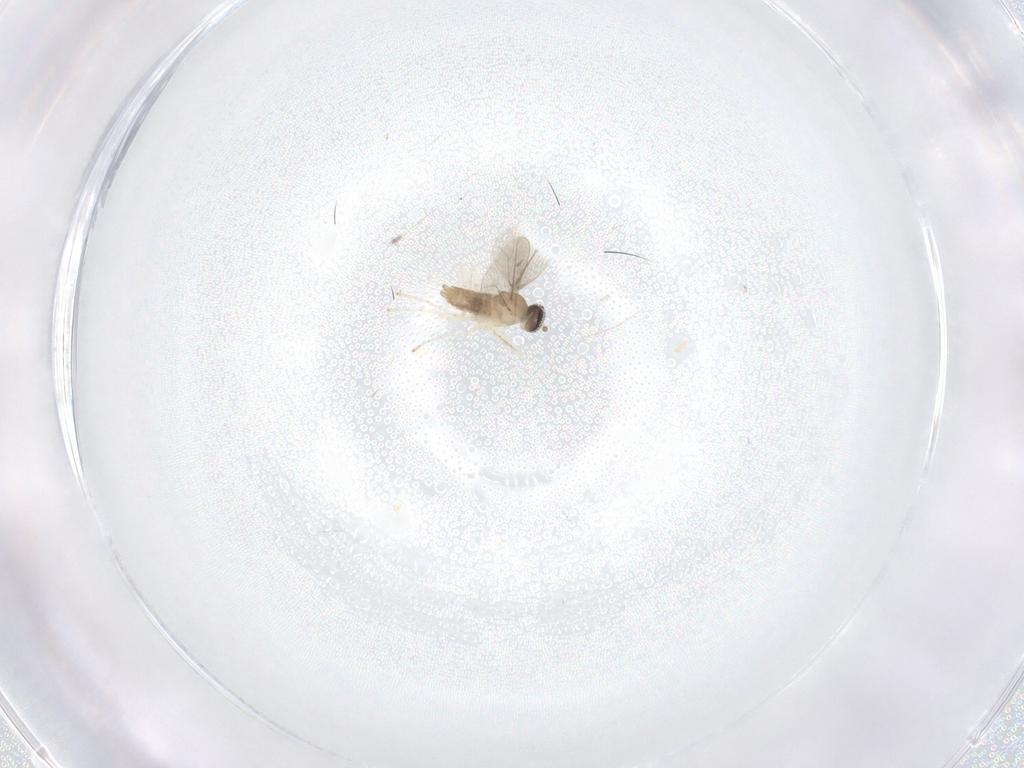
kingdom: Animalia
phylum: Arthropoda
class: Insecta
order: Diptera
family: Cecidomyiidae
